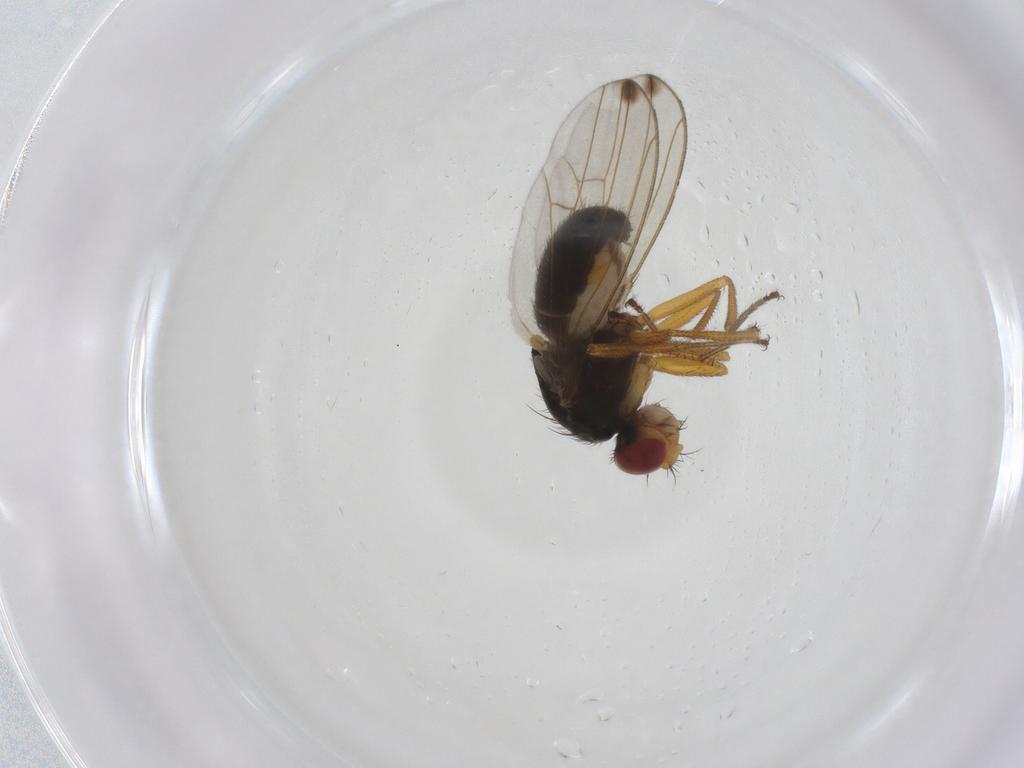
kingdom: Animalia
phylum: Arthropoda
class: Insecta
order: Diptera
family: Drosophilidae
